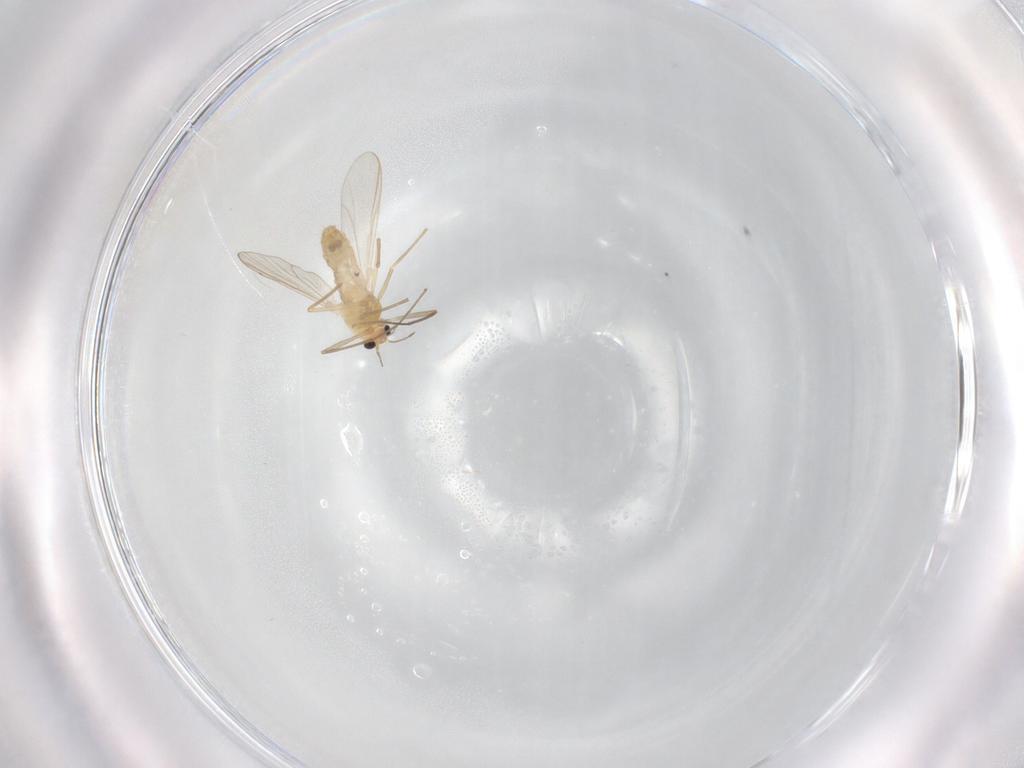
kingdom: Animalia
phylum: Arthropoda
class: Insecta
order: Diptera
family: Chironomidae
